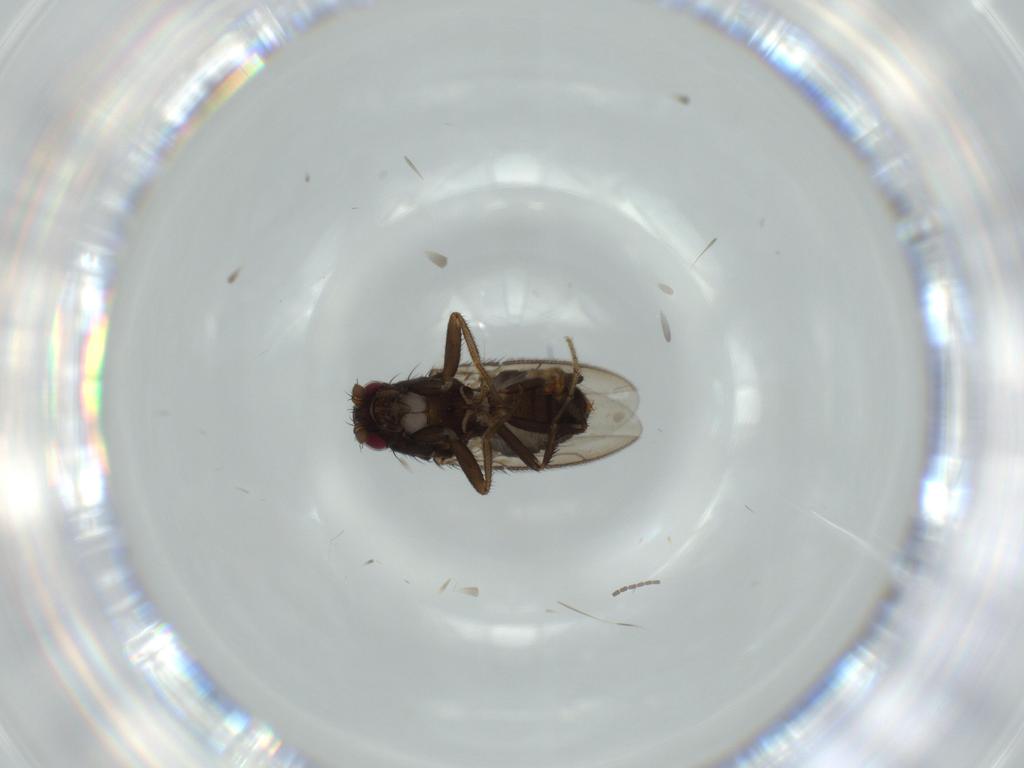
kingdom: Animalia
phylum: Arthropoda
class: Insecta
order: Diptera
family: Sphaeroceridae
